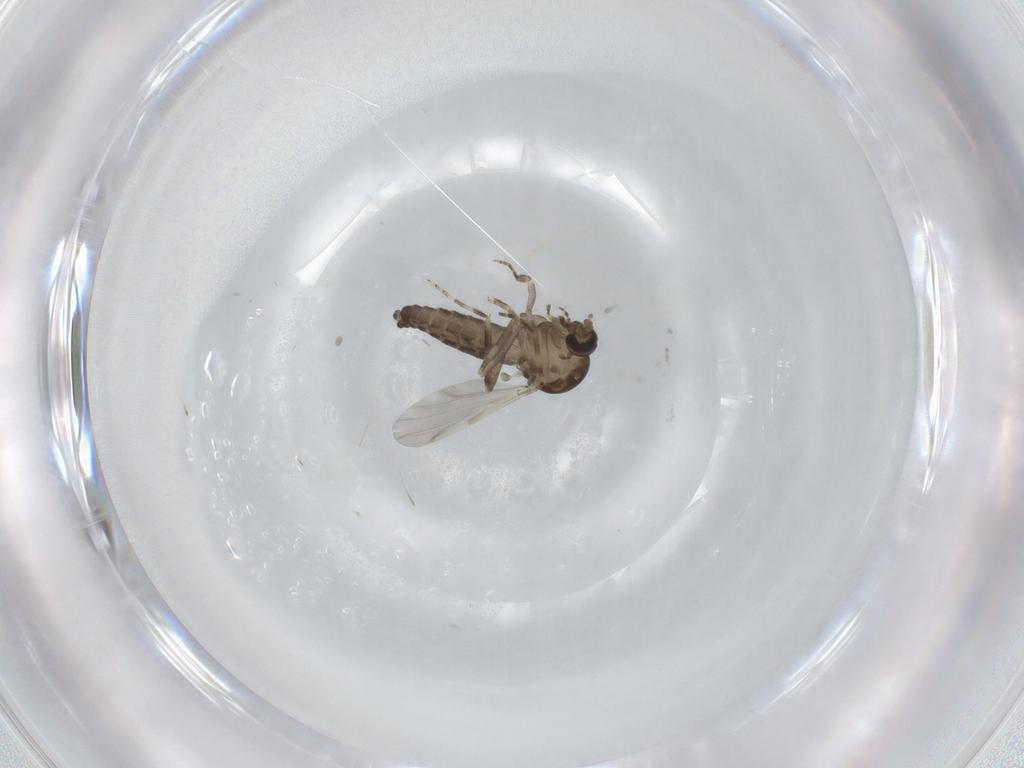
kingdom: Animalia
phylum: Arthropoda
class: Insecta
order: Diptera
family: Ceratopogonidae
